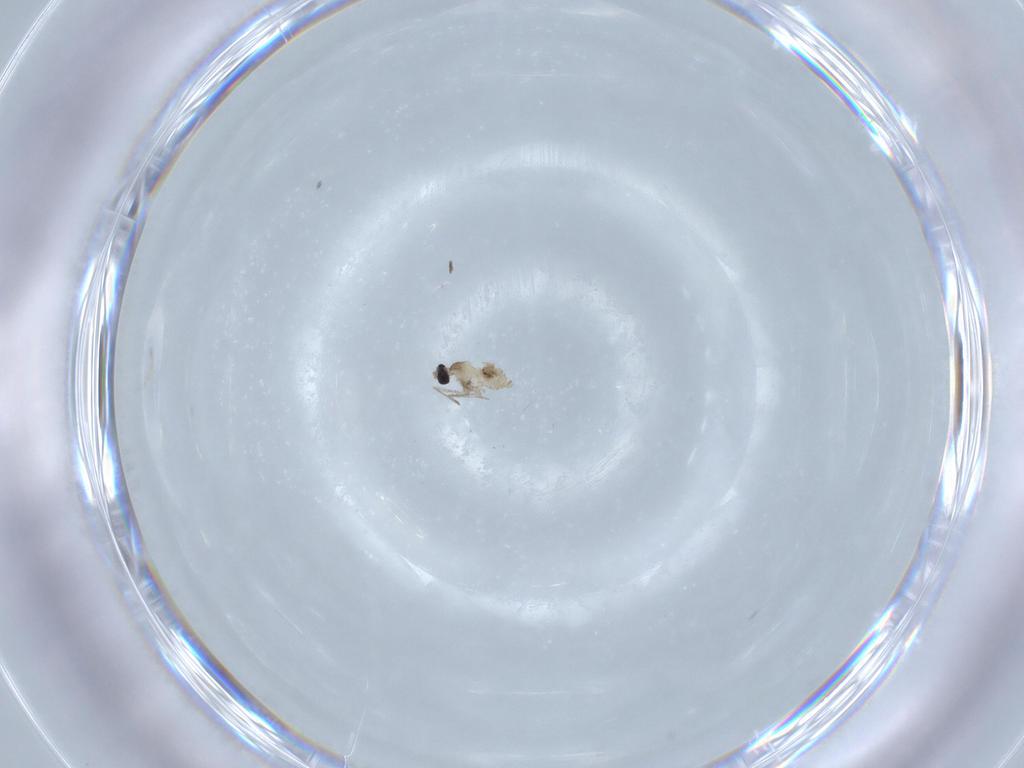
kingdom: Animalia
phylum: Arthropoda
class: Insecta
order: Diptera
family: Cecidomyiidae
